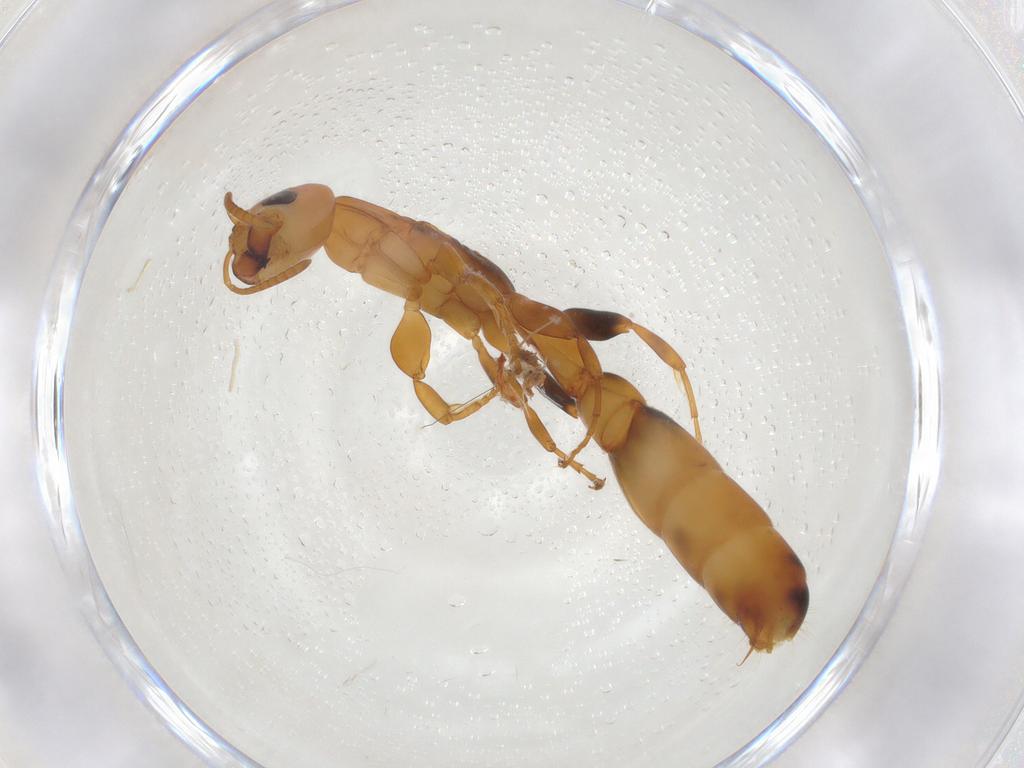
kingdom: Animalia
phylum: Arthropoda
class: Insecta
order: Hymenoptera
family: Formicidae
